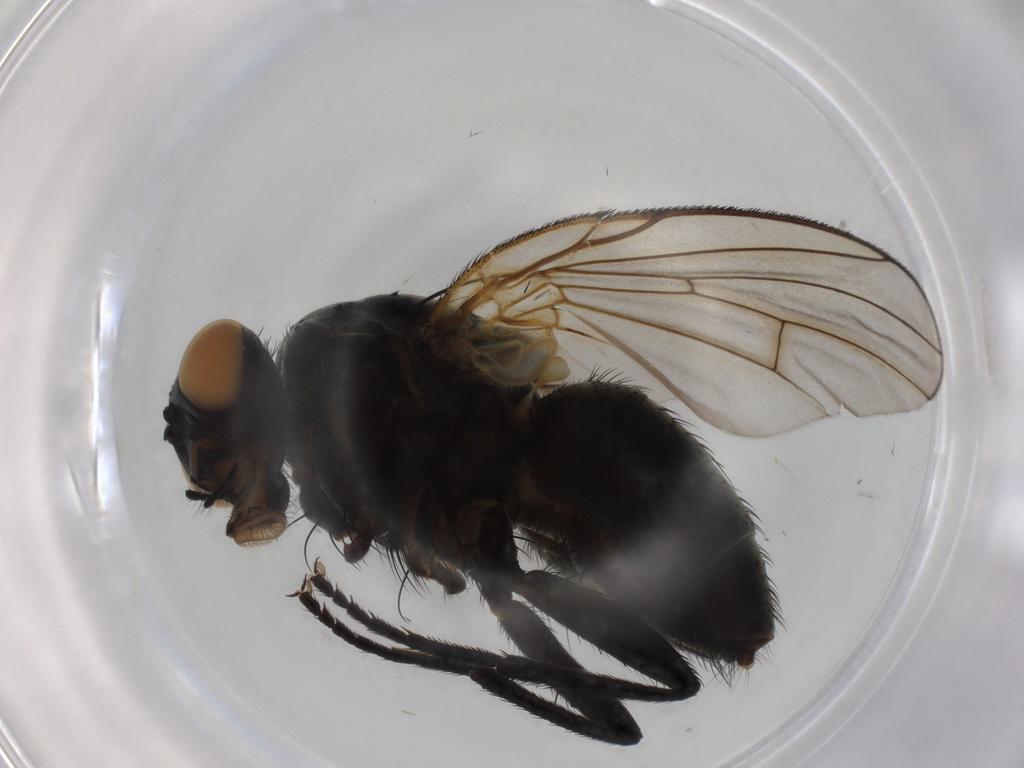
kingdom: Animalia
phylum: Arthropoda
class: Insecta
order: Diptera
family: Muscidae
